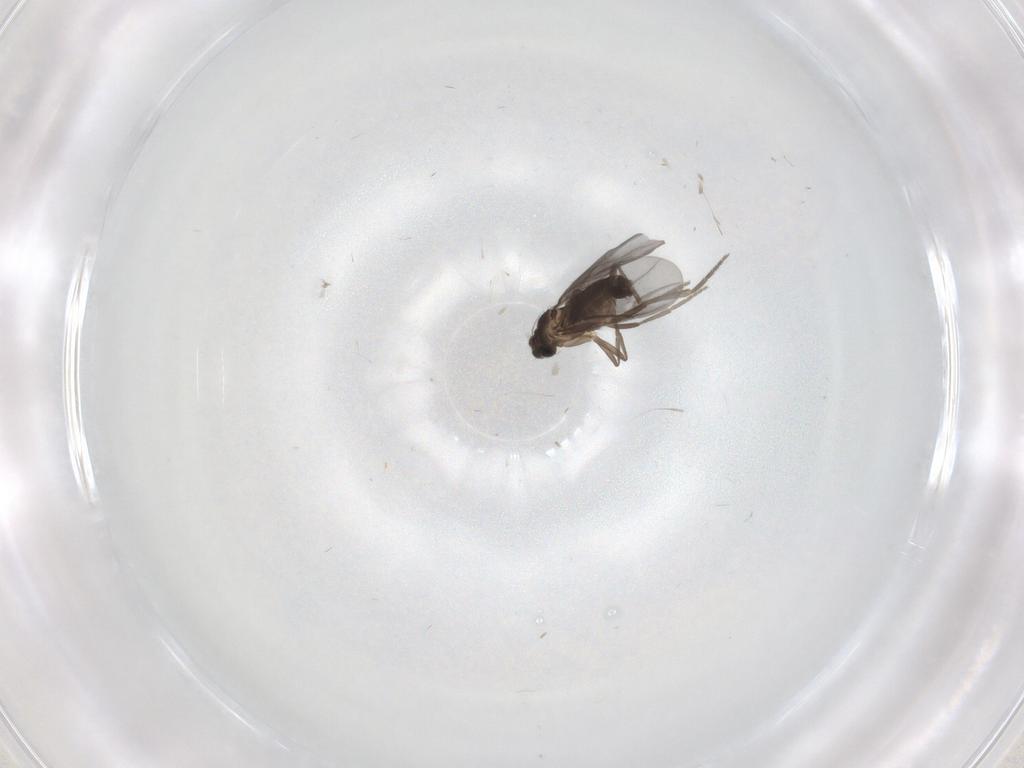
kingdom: Animalia
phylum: Arthropoda
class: Insecta
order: Diptera
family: Phoridae
